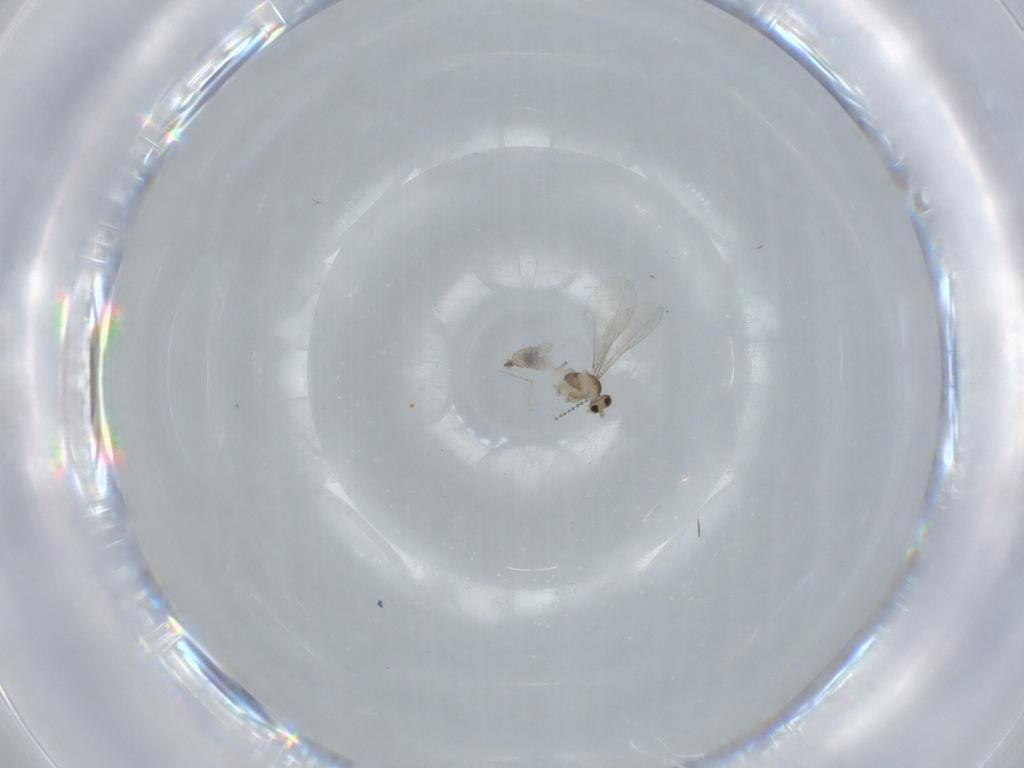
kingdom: Animalia
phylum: Arthropoda
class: Insecta
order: Diptera
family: Cecidomyiidae
